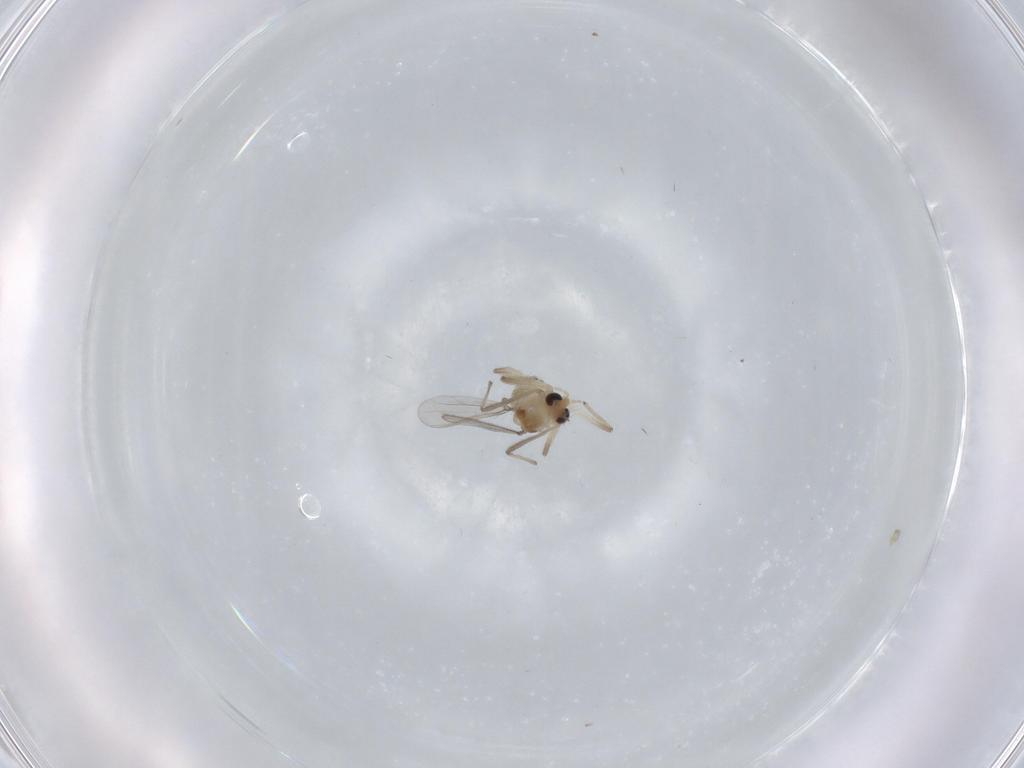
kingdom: Animalia
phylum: Arthropoda
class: Insecta
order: Diptera
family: Chironomidae
